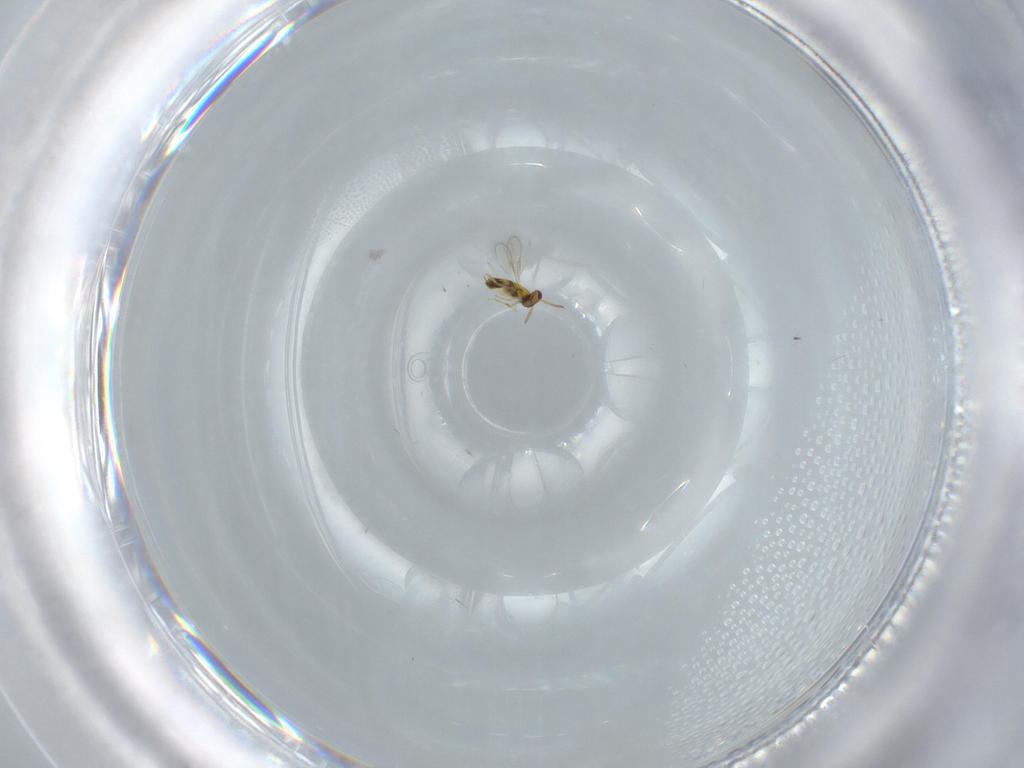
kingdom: Animalia
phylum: Arthropoda
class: Insecta
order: Hymenoptera
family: Aphelinidae
